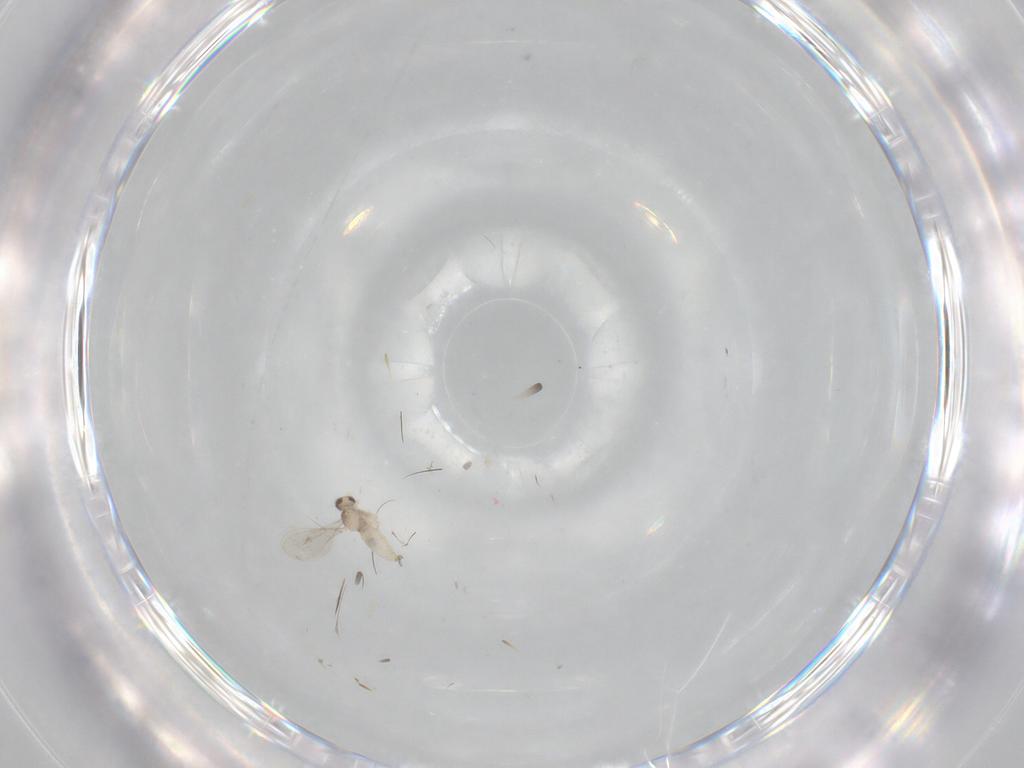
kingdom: Animalia
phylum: Arthropoda
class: Insecta
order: Diptera
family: Cecidomyiidae
